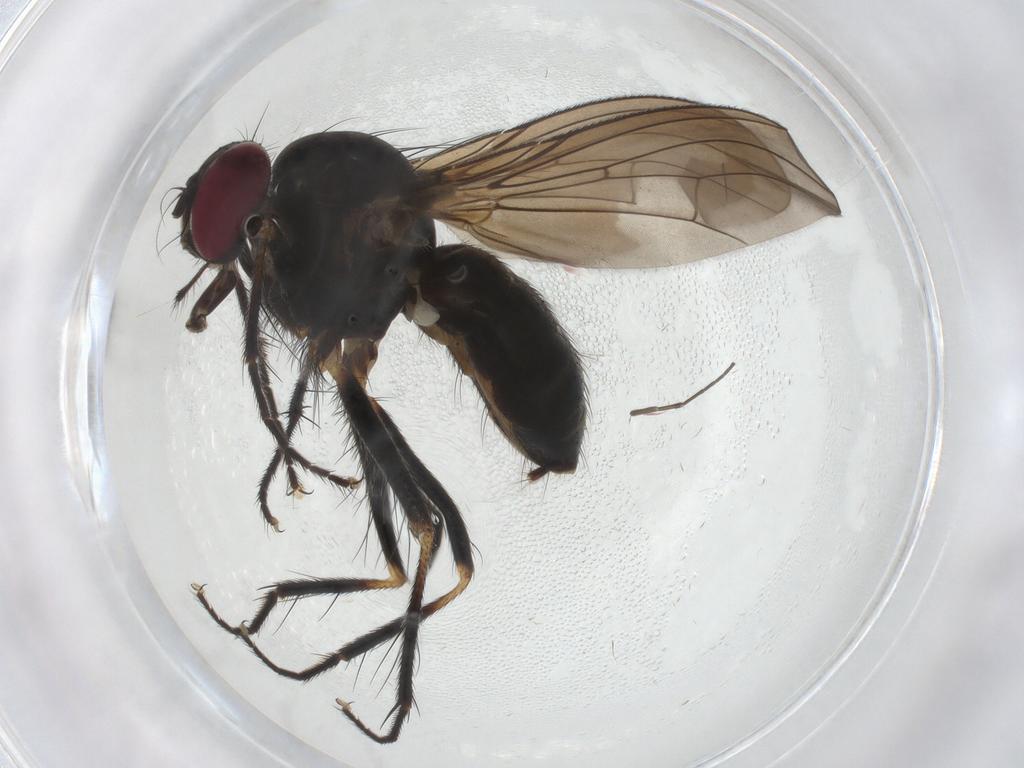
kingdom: Animalia
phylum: Arthropoda
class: Insecta
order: Diptera
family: Anthomyiidae
